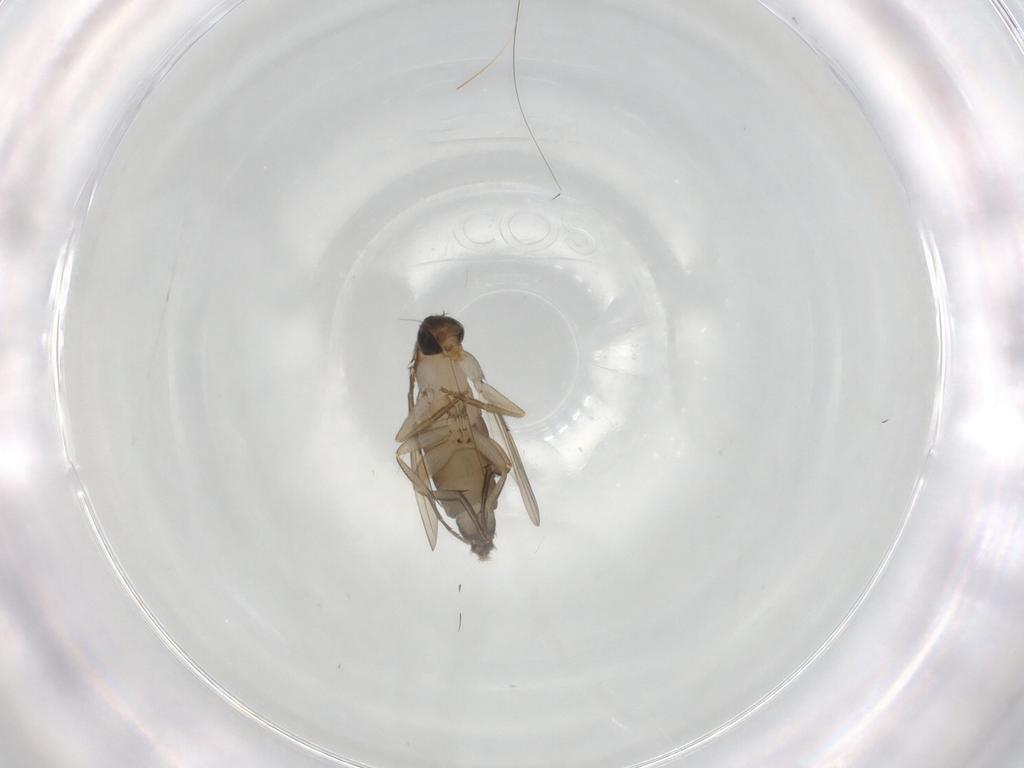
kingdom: Animalia
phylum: Arthropoda
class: Insecta
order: Diptera
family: Phoridae
